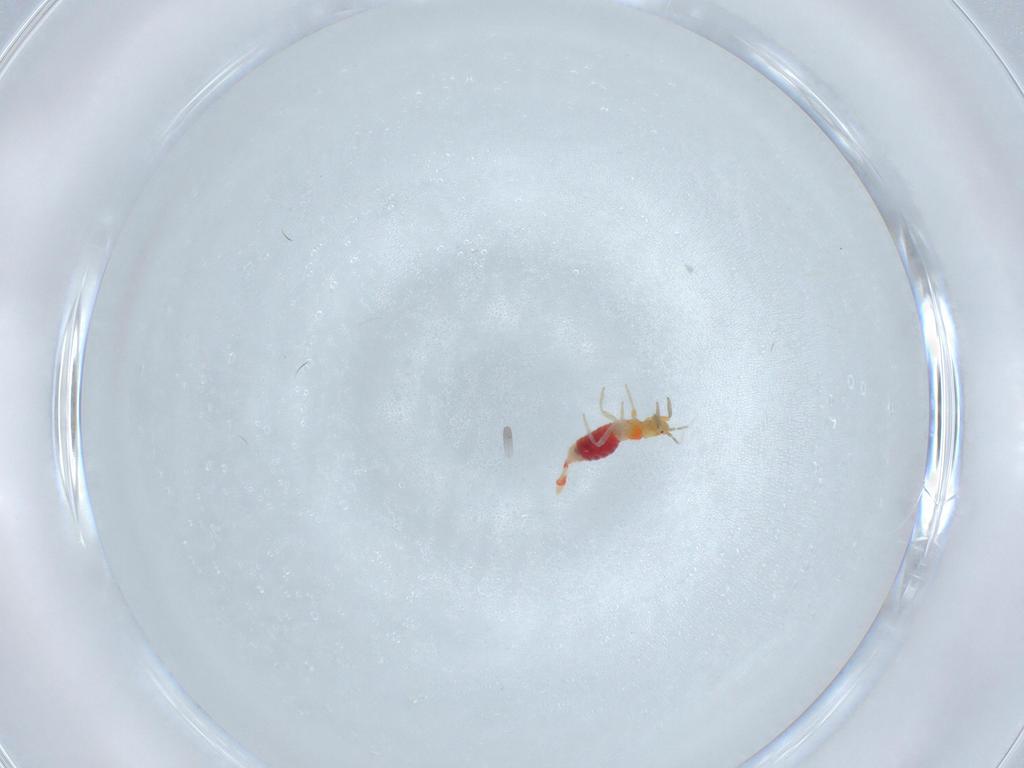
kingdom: Animalia
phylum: Arthropoda
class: Insecta
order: Thysanoptera
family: Aeolothripidae
